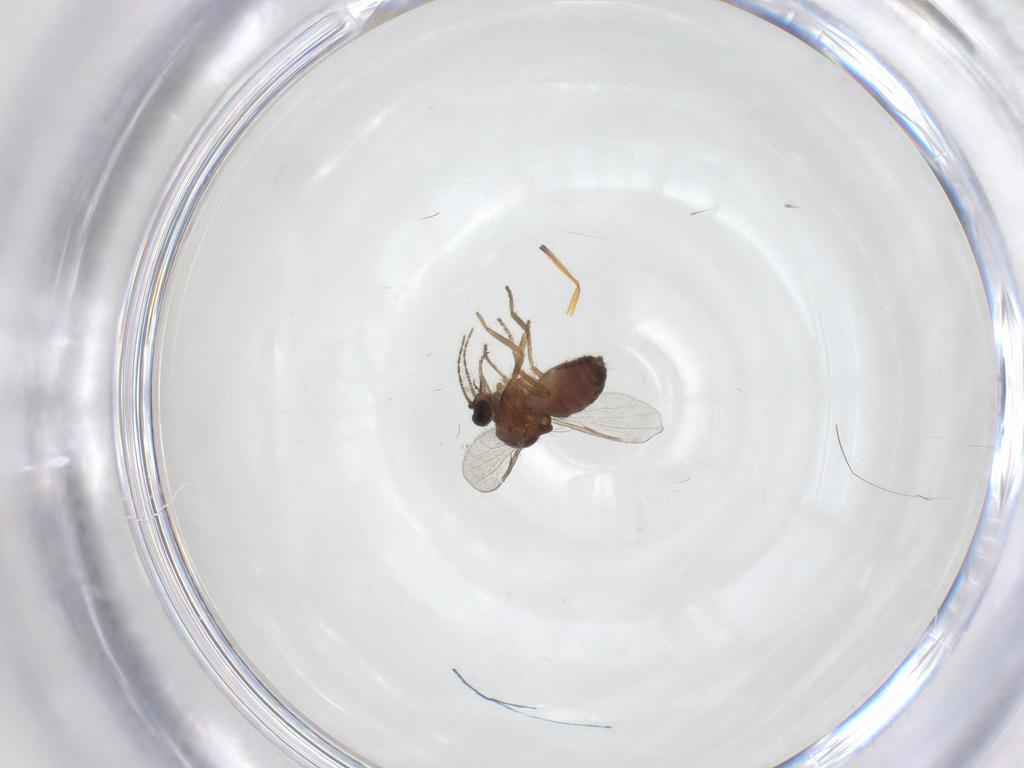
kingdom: Animalia
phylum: Arthropoda
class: Insecta
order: Diptera
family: Ceratopogonidae
